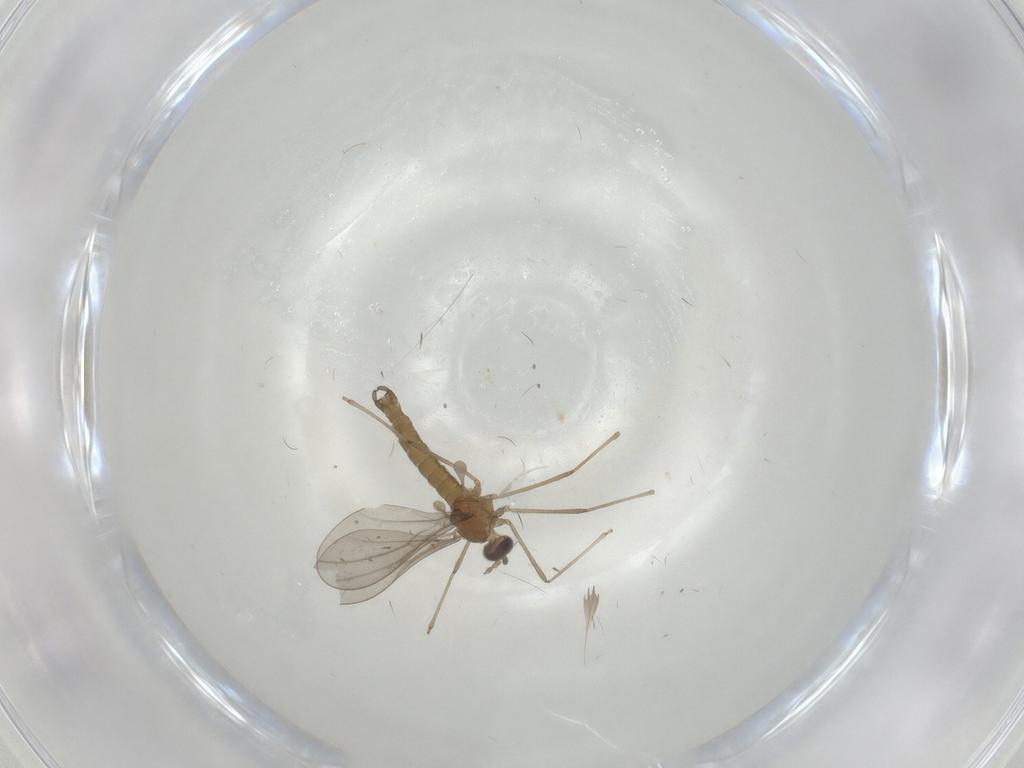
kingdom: Animalia
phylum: Arthropoda
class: Insecta
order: Diptera
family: Cecidomyiidae
